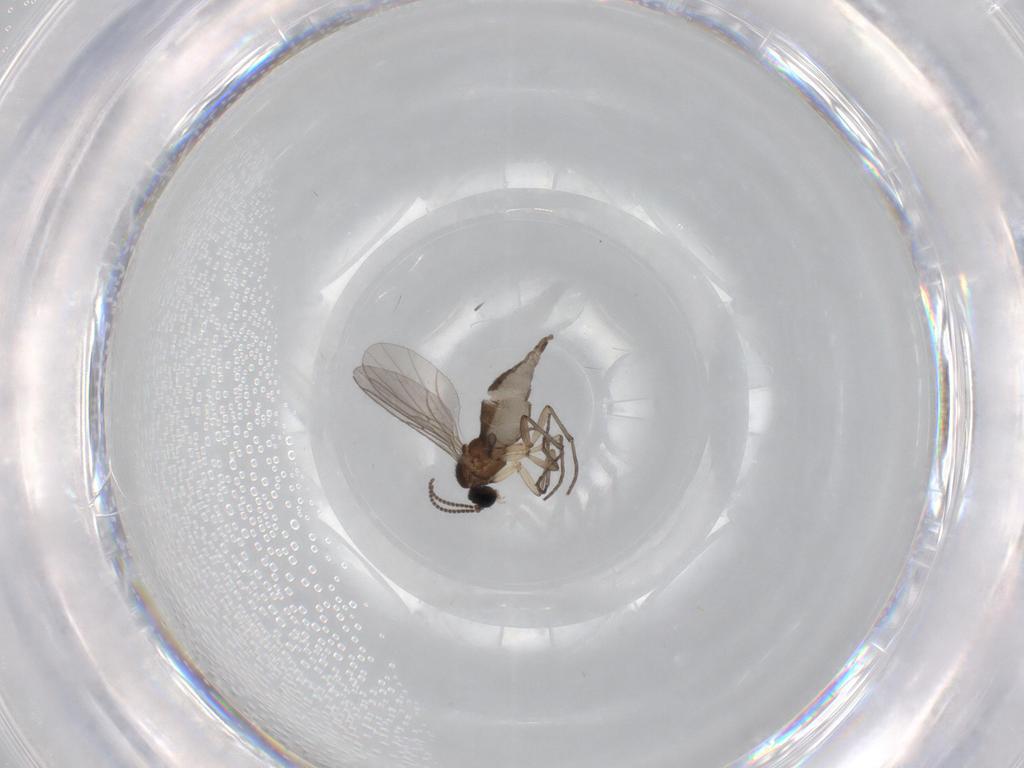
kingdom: Animalia
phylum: Arthropoda
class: Insecta
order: Diptera
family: Sciaridae
